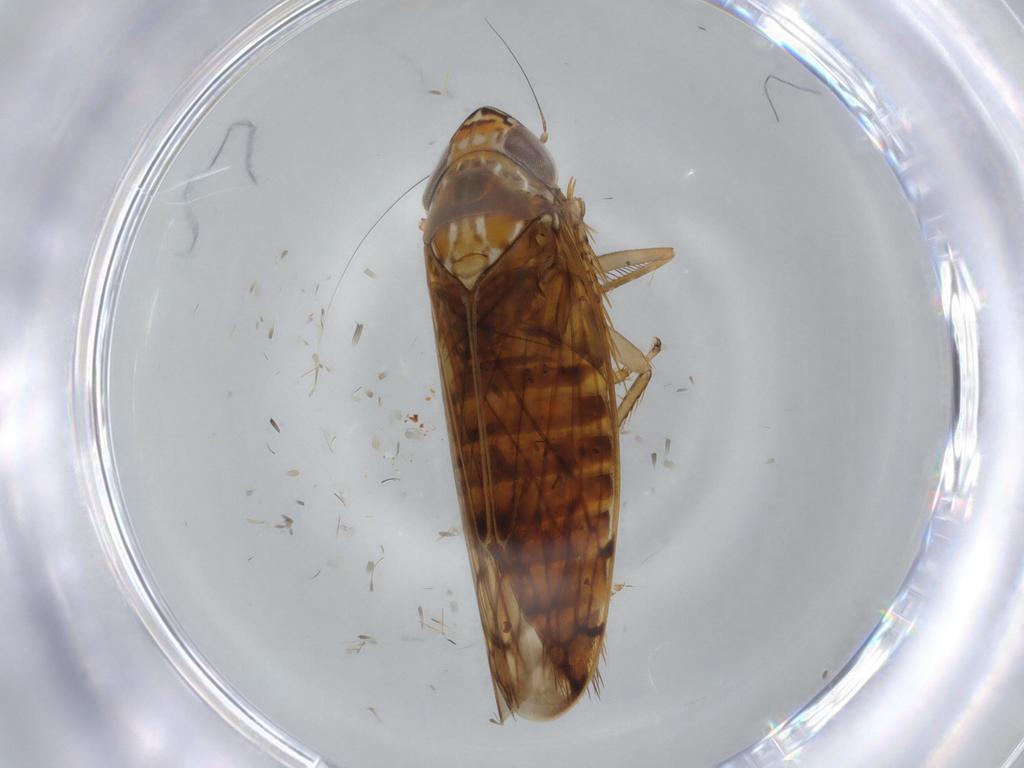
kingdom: Animalia
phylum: Arthropoda
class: Insecta
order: Hemiptera
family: Cicadellidae
